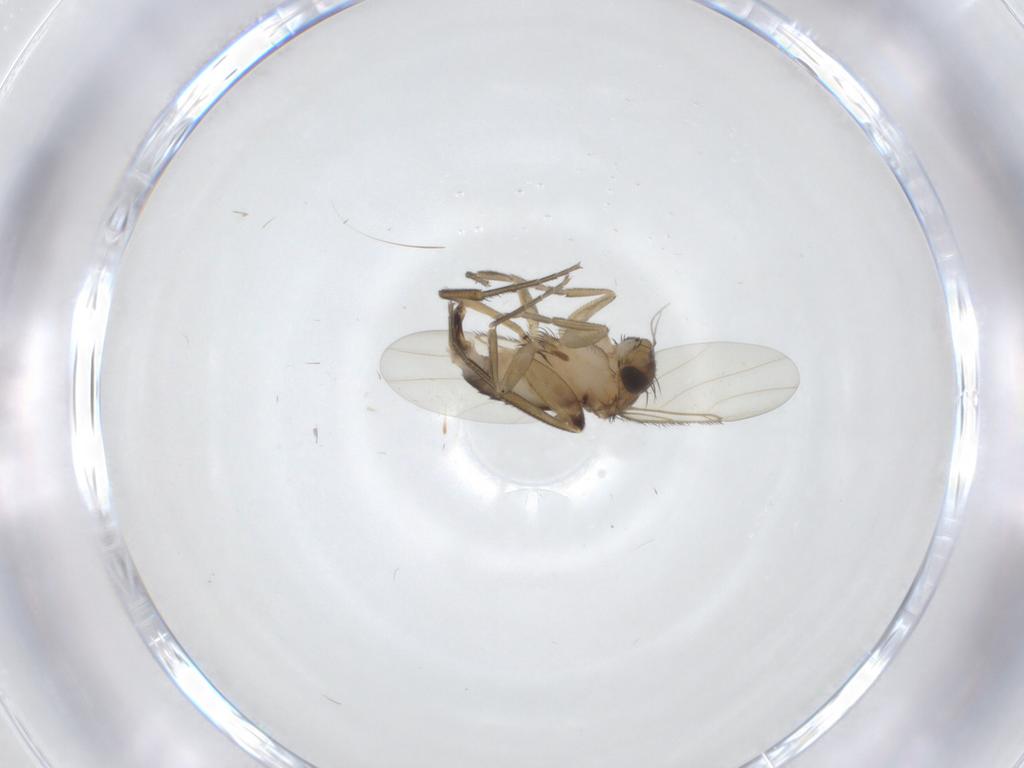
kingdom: Animalia
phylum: Arthropoda
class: Insecta
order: Diptera
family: Phoridae
